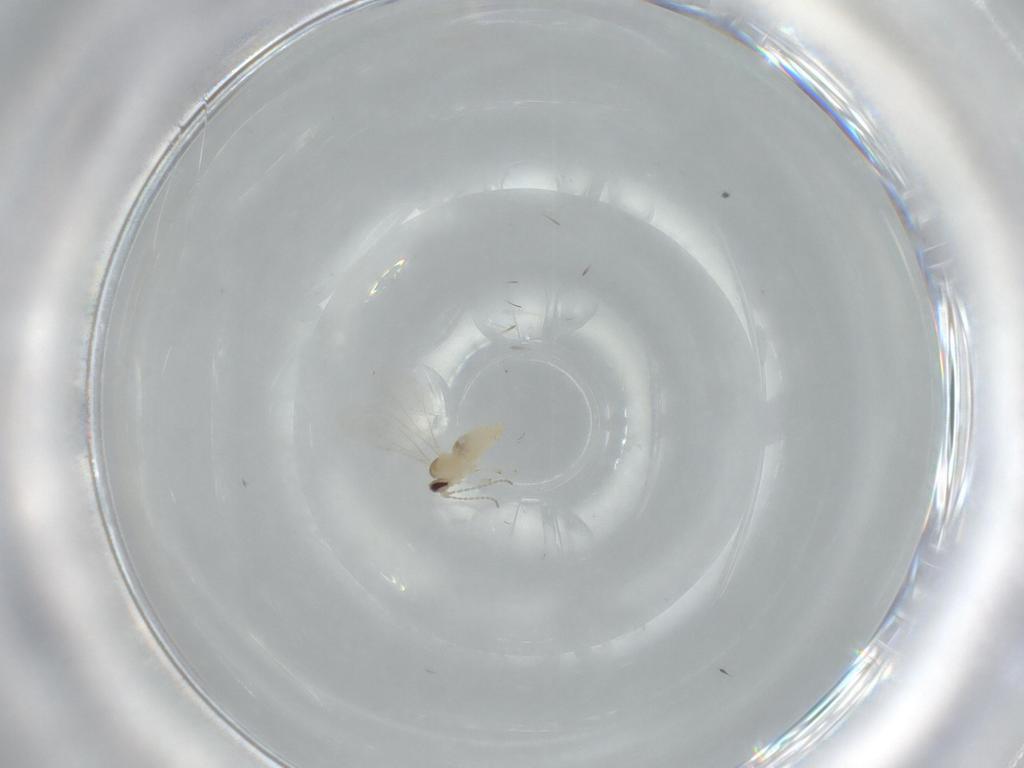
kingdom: Animalia
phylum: Arthropoda
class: Insecta
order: Diptera
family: Cecidomyiidae
